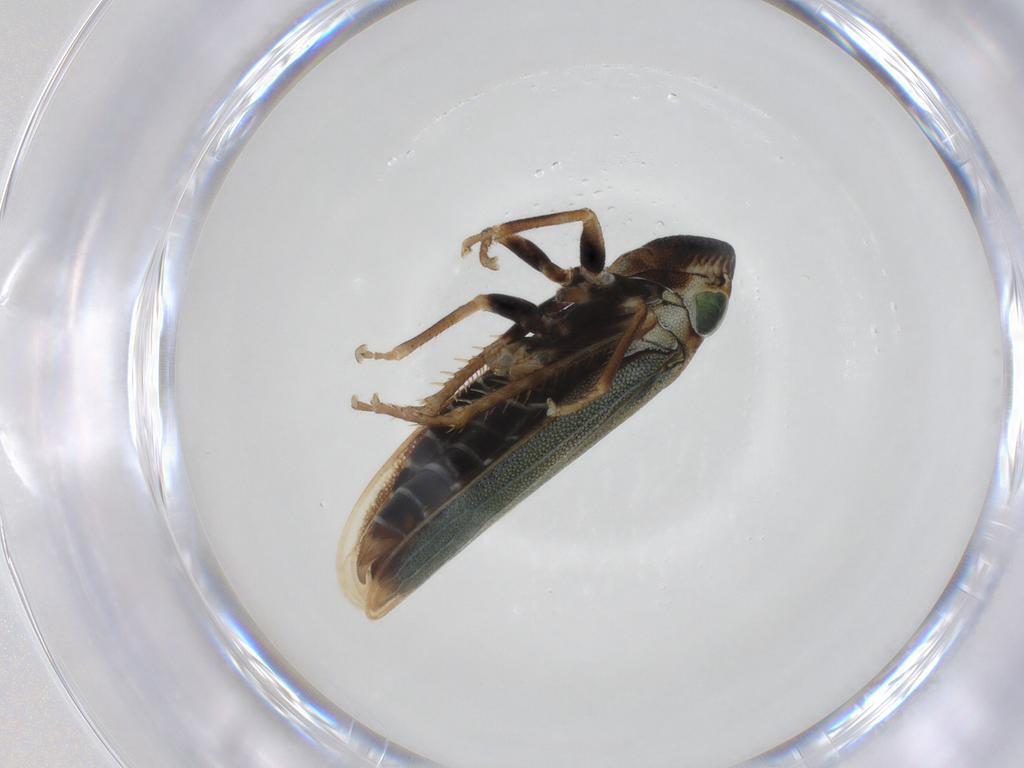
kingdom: Animalia
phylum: Arthropoda
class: Insecta
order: Hemiptera
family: Cicadellidae
